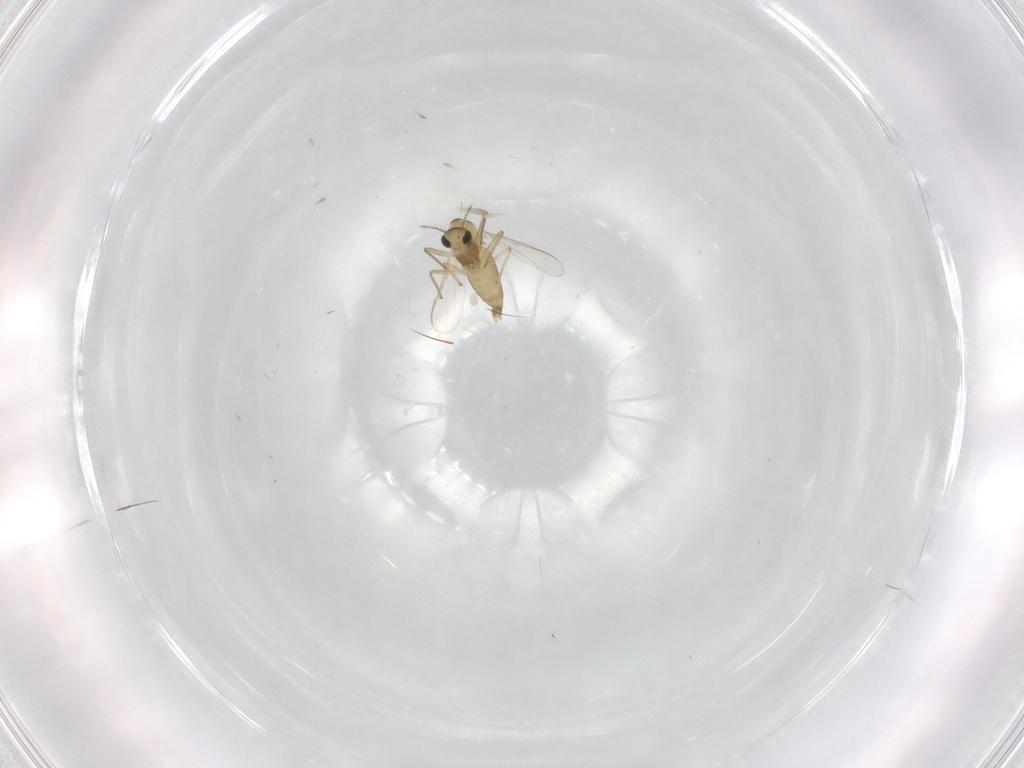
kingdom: Animalia
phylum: Arthropoda
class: Insecta
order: Diptera
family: Chironomidae
